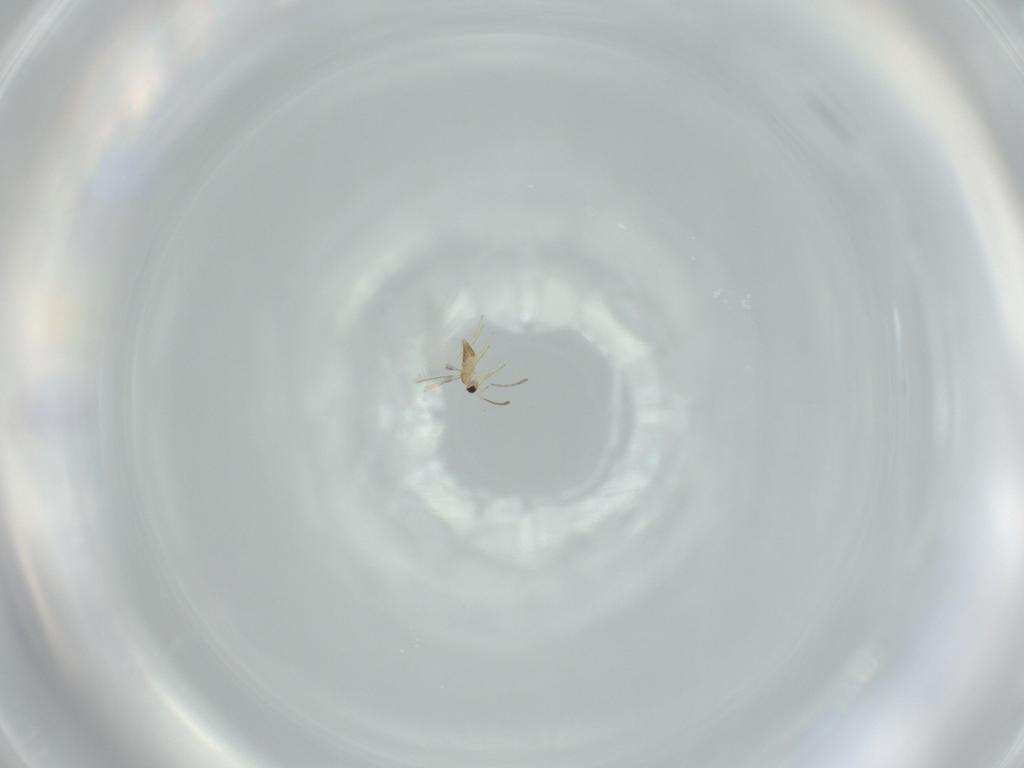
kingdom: Animalia
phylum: Arthropoda
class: Insecta
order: Hymenoptera
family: Mymaridae
